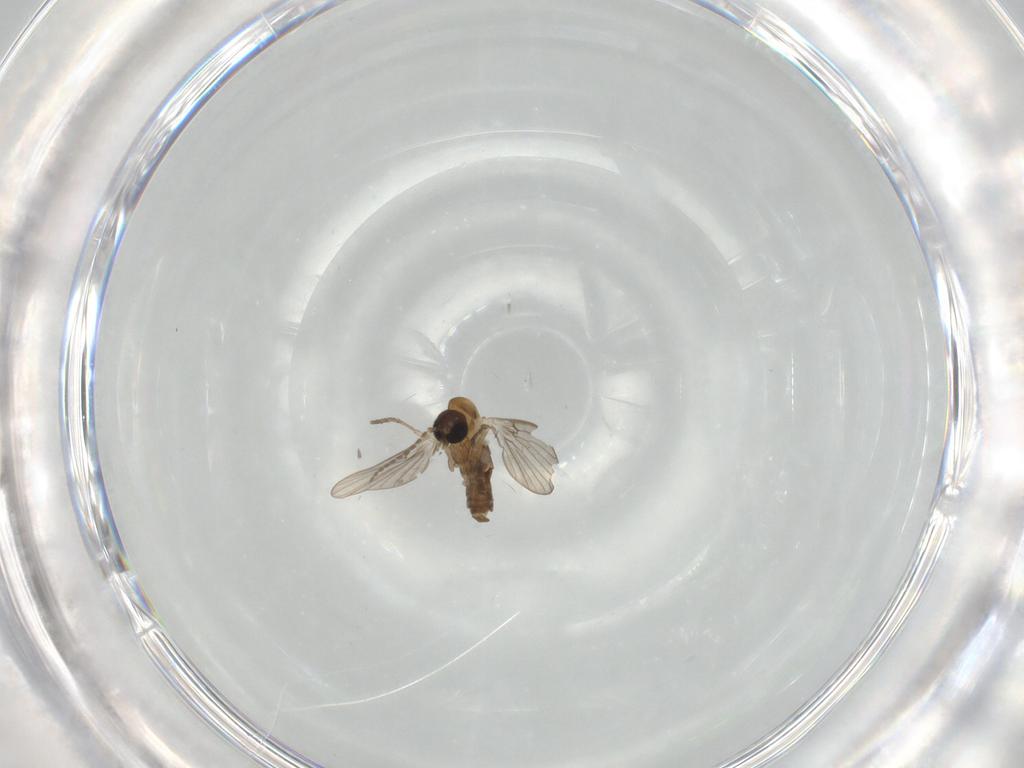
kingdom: Animalia
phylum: Arthropoda
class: Insecta
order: Diptera
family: Psychodidae
